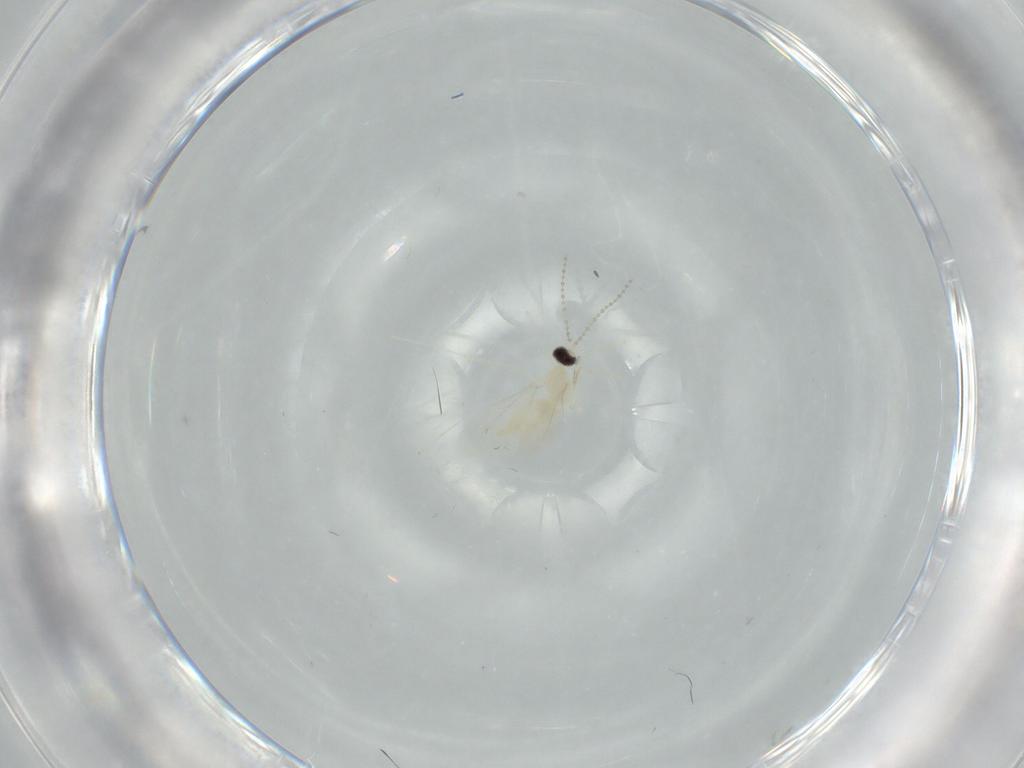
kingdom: Animalia
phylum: Arthropoda
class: Insecta
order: Diptera
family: Cecidomyiidae
